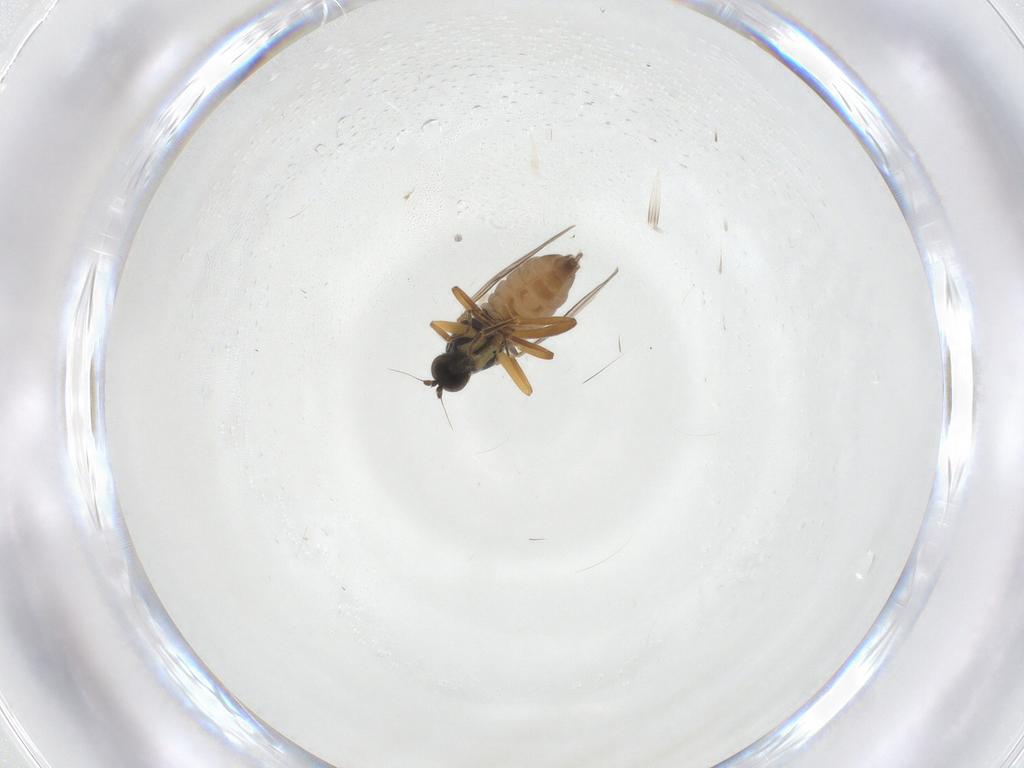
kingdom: Animalia
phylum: Arthropoda
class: Insecta
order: Diptera
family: Hybotidae
